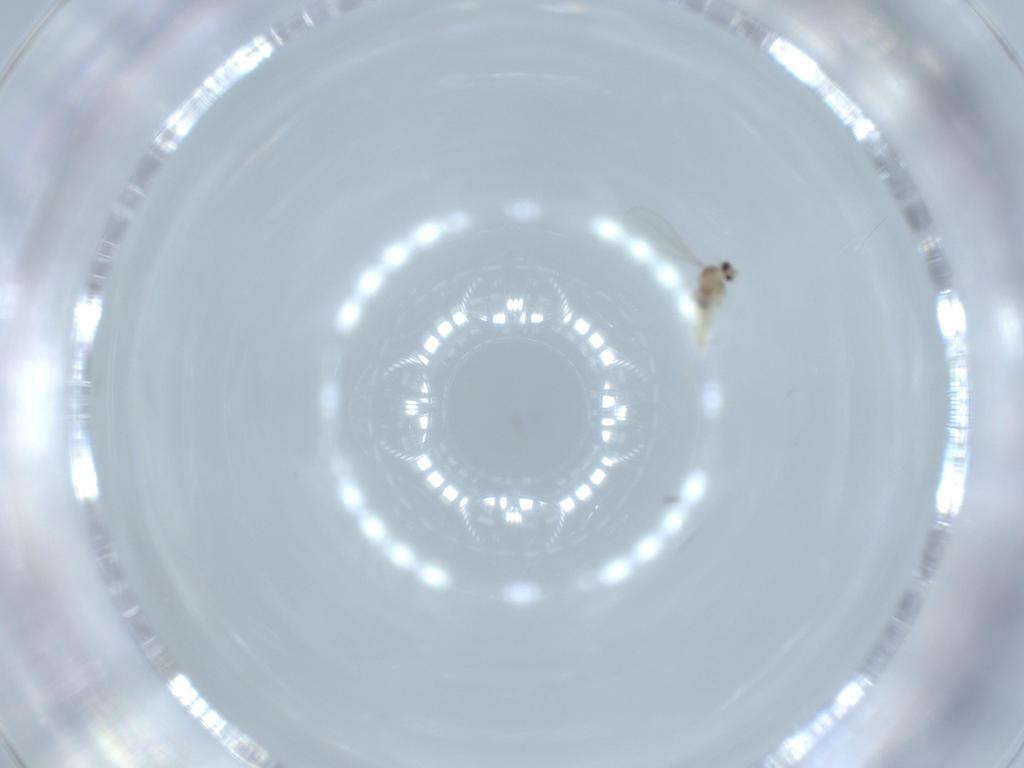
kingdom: Animalia
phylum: Arthropoda
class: Insecta
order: Diptera
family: Cecidomyiidae
